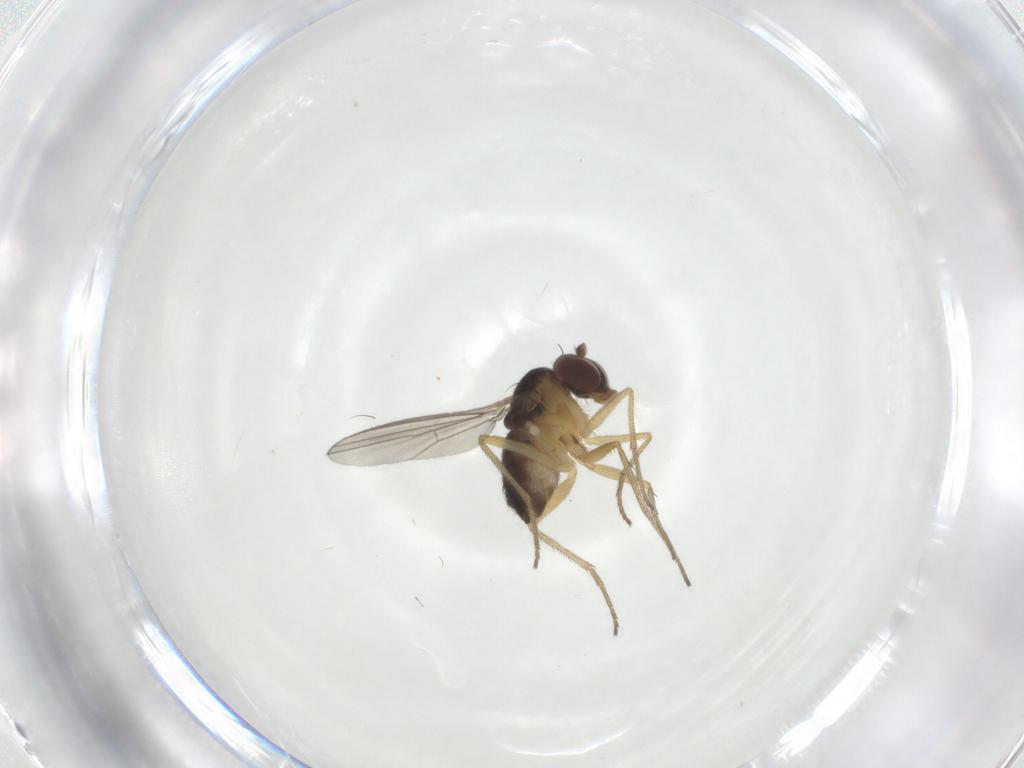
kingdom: Animalia
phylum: Arthropoda
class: Insecta
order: Diptera
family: Dolichopodidae
